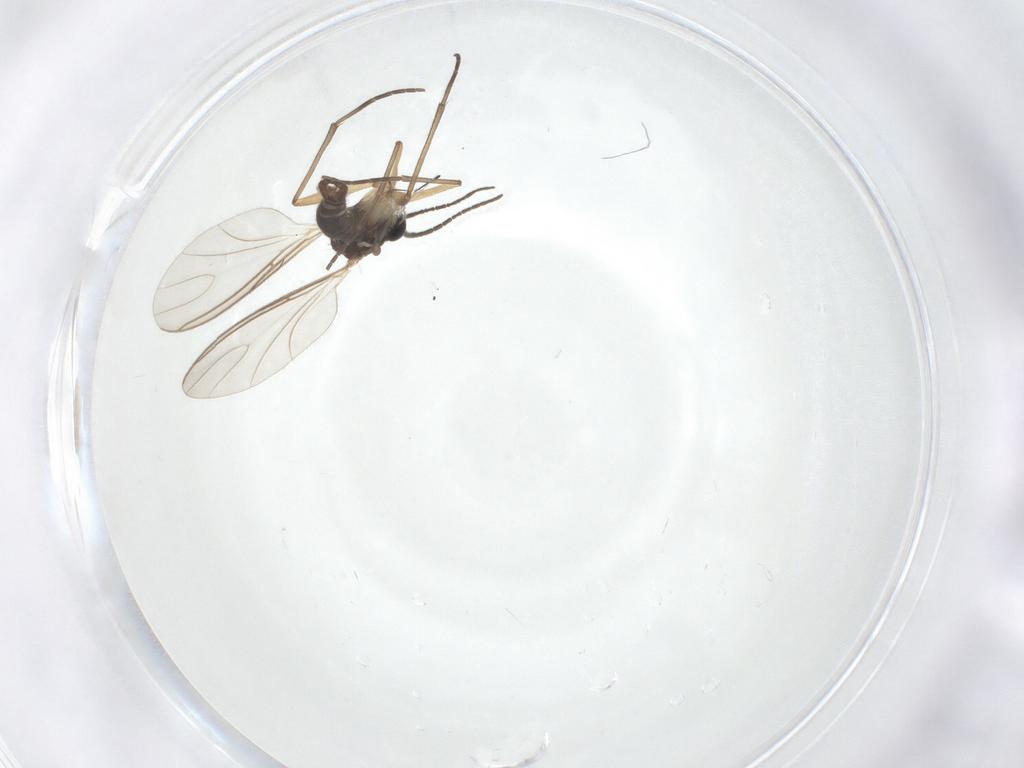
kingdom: Animalia
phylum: Arthropoda
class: Insecta
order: Diptera
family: Sciaridae
